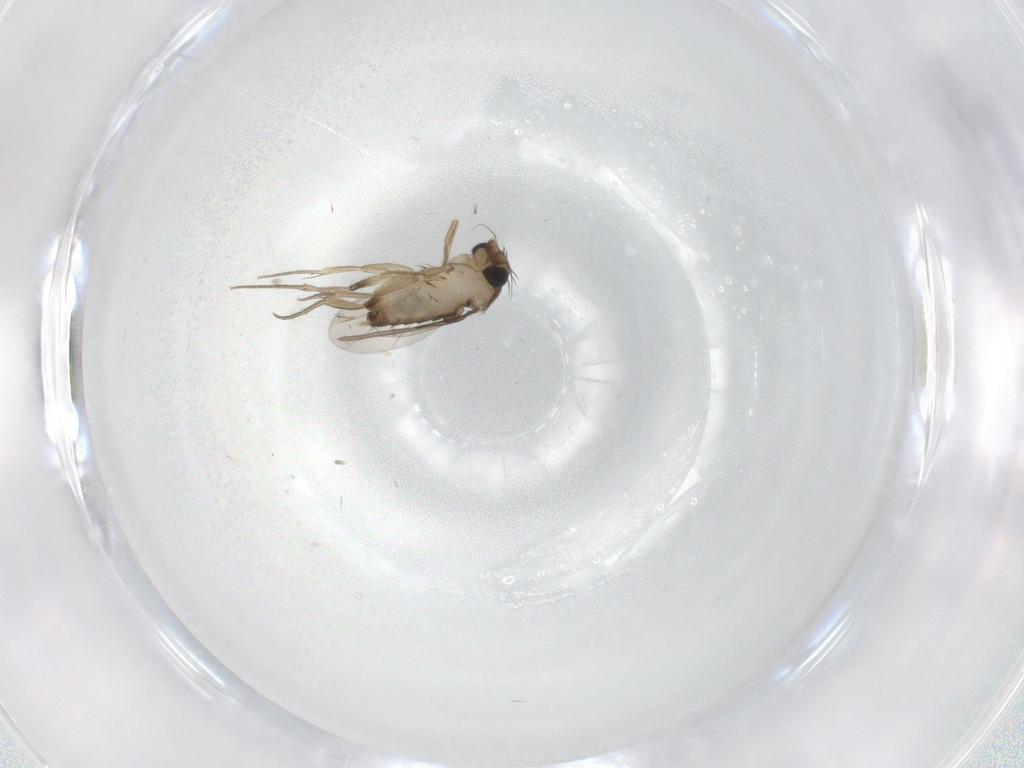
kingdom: Animalia
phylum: Arthropoda
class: Insecta
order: Diptera
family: Phoridae
